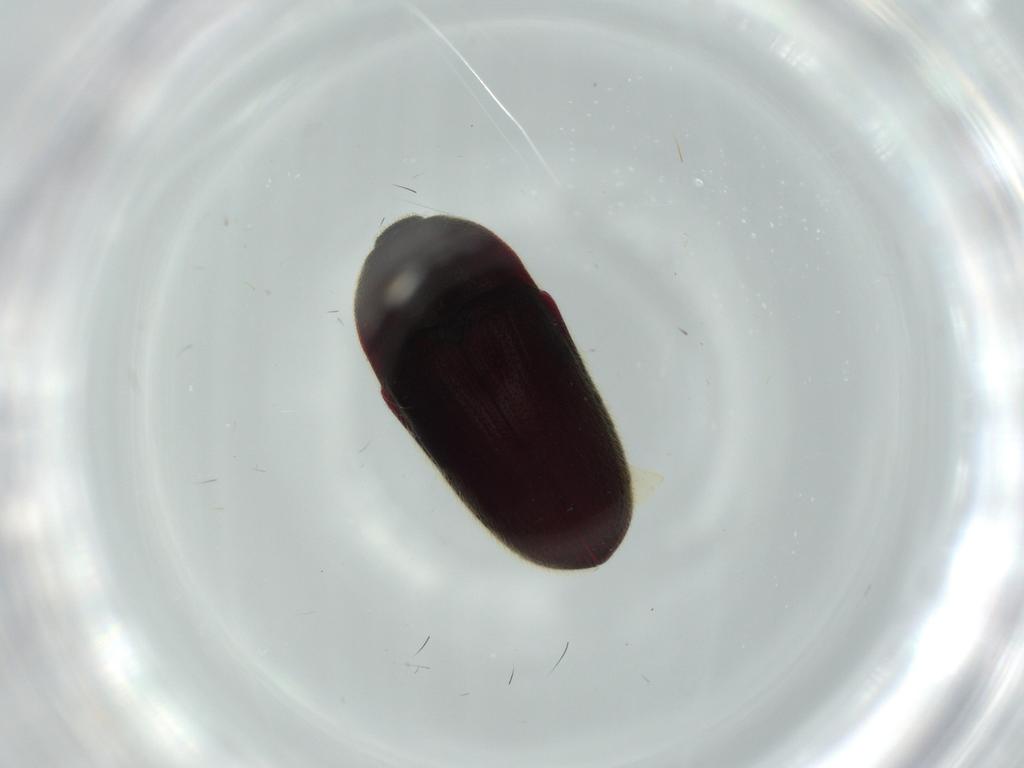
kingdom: Animalia
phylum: Arthropoda
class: Insecta
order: Coleoptera
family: Throscidae
